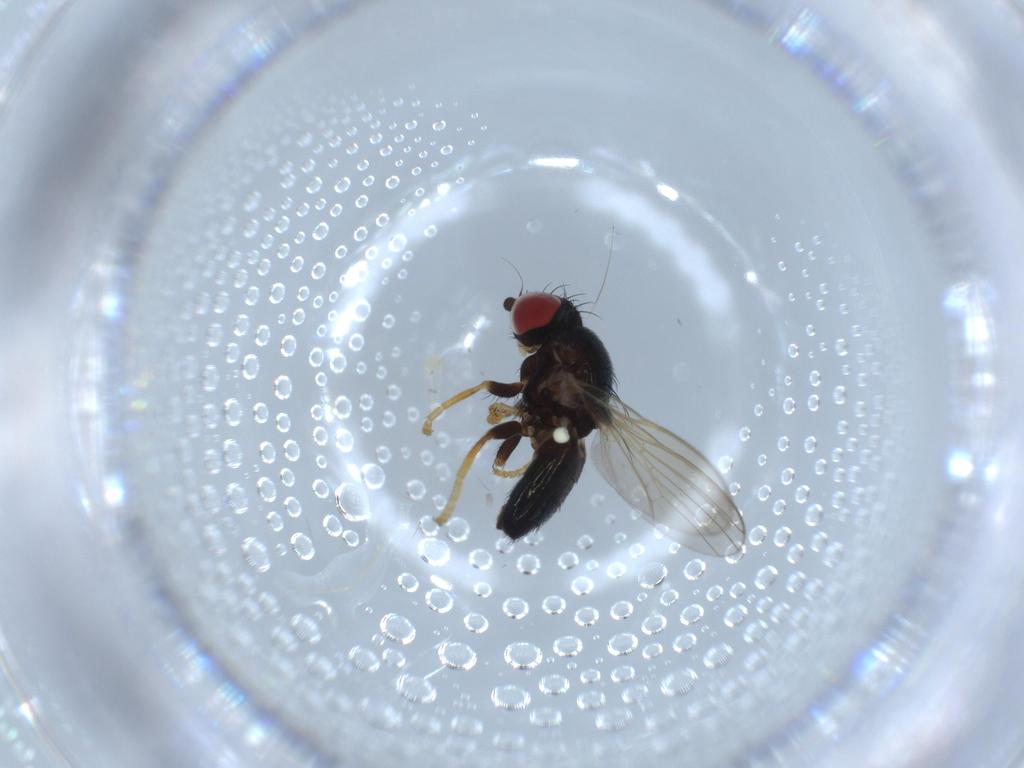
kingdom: Animalia
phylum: Arthropoda
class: Insecta
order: Diptera
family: Chamaemyiidae
